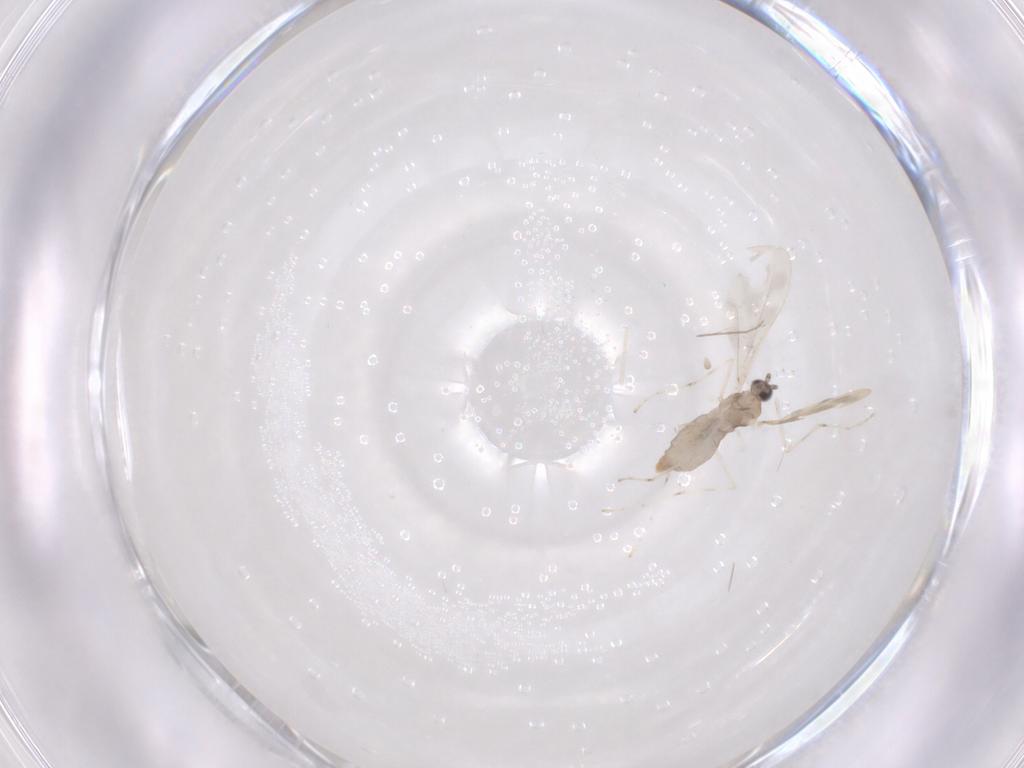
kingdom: Animalia
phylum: Arthropoda
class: Insecta
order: Diptera
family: Cecidomyiidae
